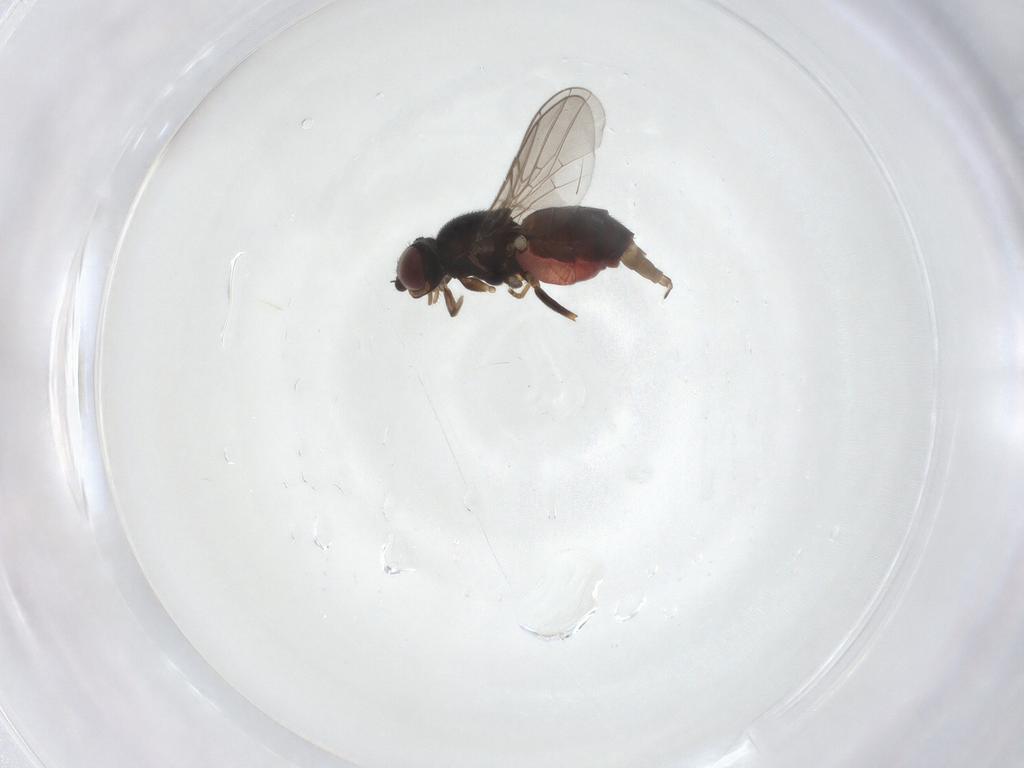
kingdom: Animalia
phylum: Arthropoda
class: Insecta
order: Diptera
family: Chloropidae
